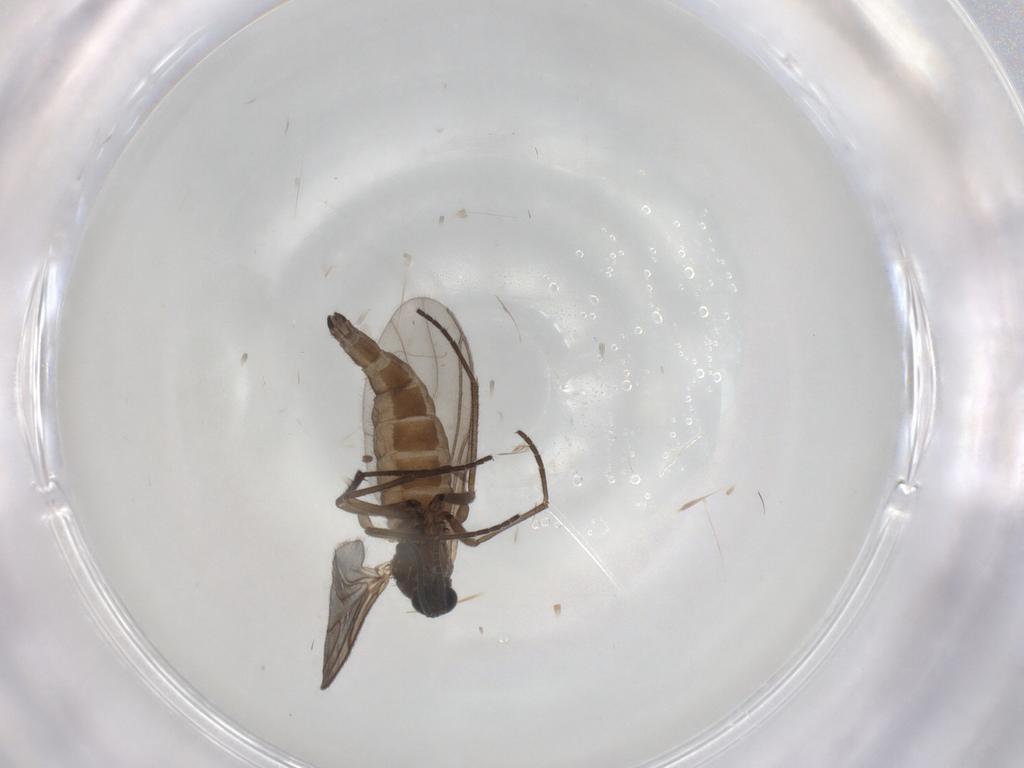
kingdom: Animalia
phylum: Arthropoda
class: Insecta
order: Diptera
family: Sciaridae
